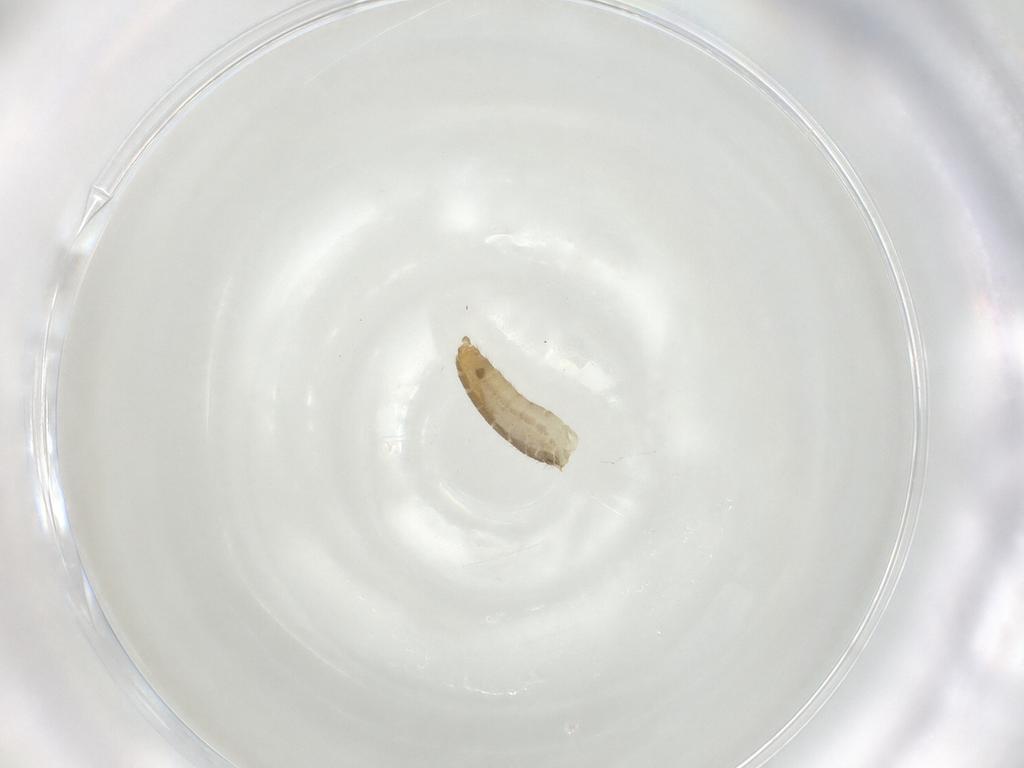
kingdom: Animalia
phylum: Arthropoda
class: Insecta
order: Diptera
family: Chironomidae
